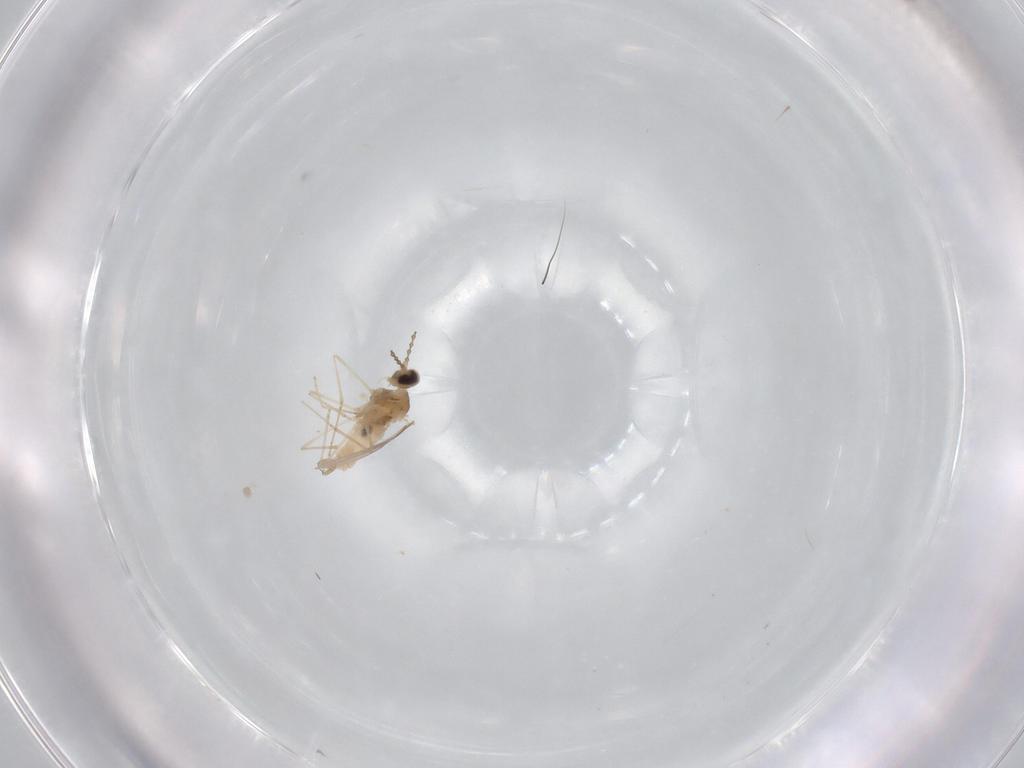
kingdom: Animalia
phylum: Arthropoda
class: Insecta
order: Diptera
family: Cecidomyiidae
